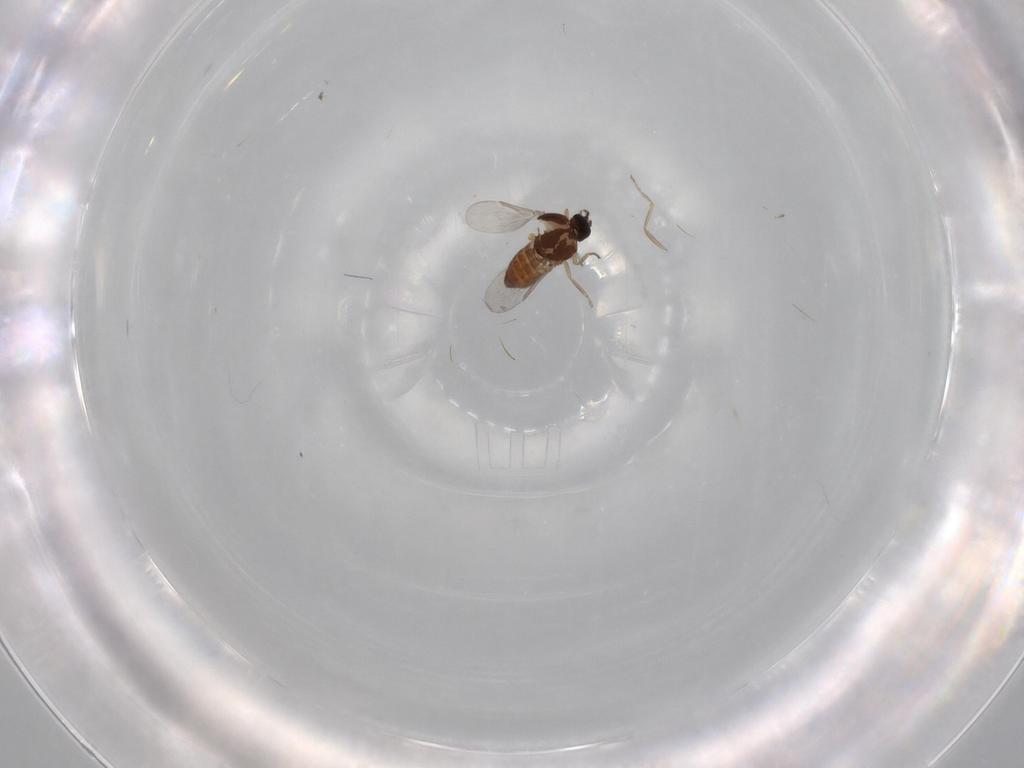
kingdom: Animalia
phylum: Arthropoda
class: Insecta
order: Diptera
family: Ceratopogonidae
